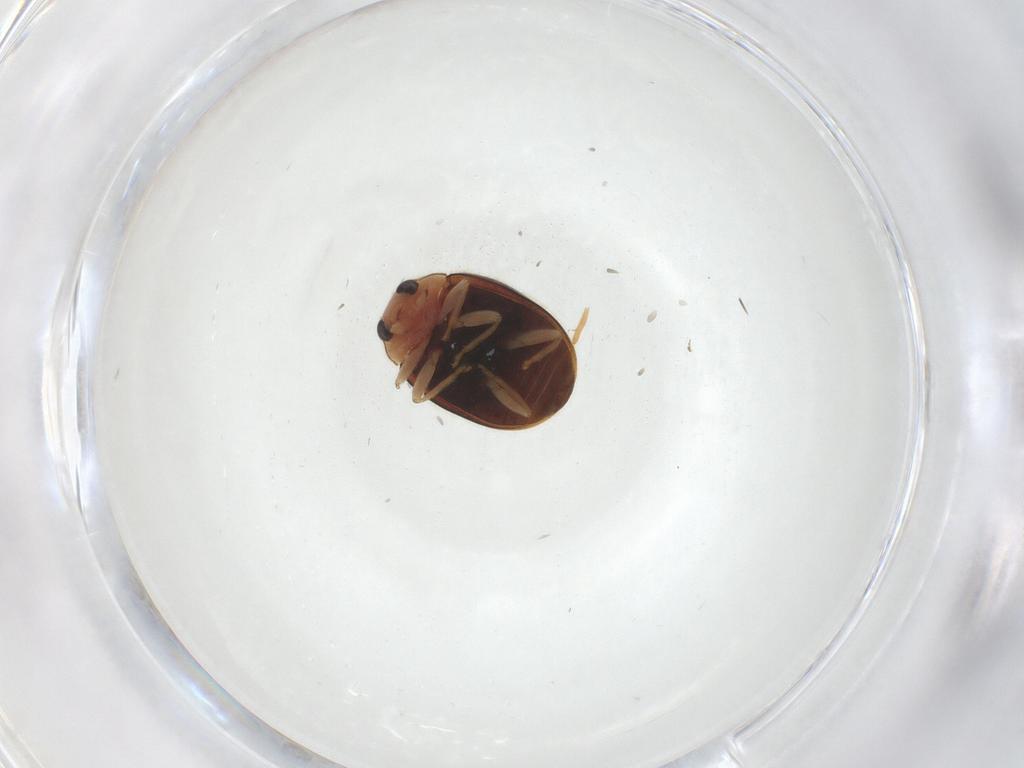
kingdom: Animalia
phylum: Arthropoda
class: Insecta
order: Coleoptera
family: Coccinellidae
